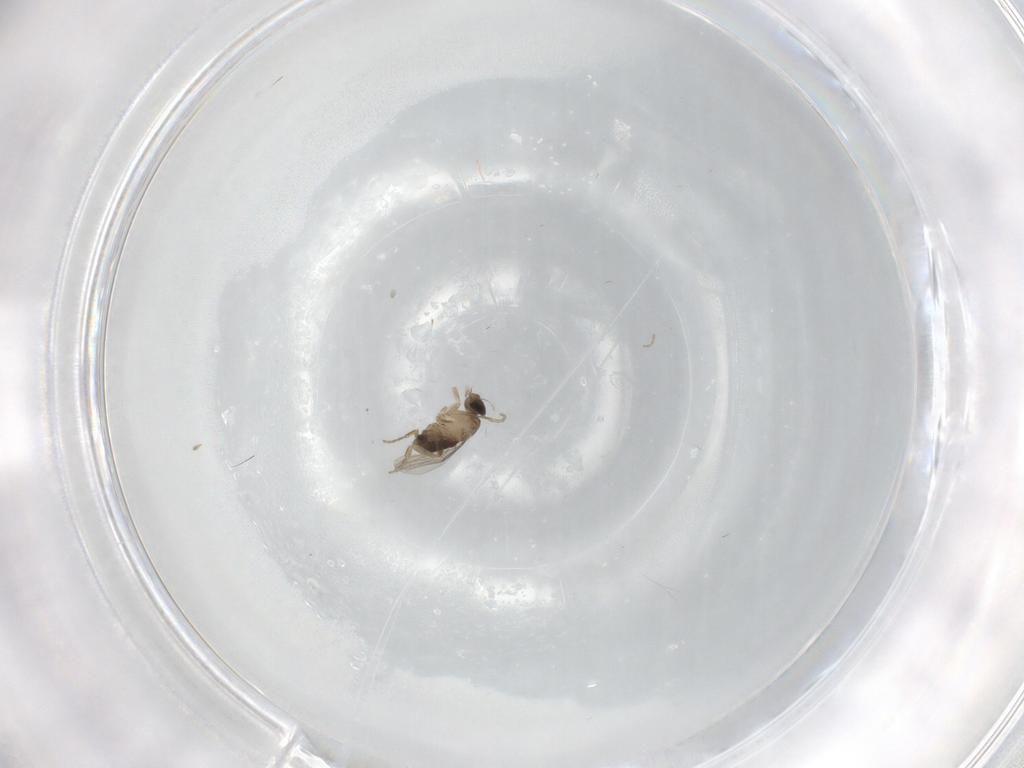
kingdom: Animalia
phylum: Arthropoda
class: Insecta
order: Diptera
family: Phoridae
